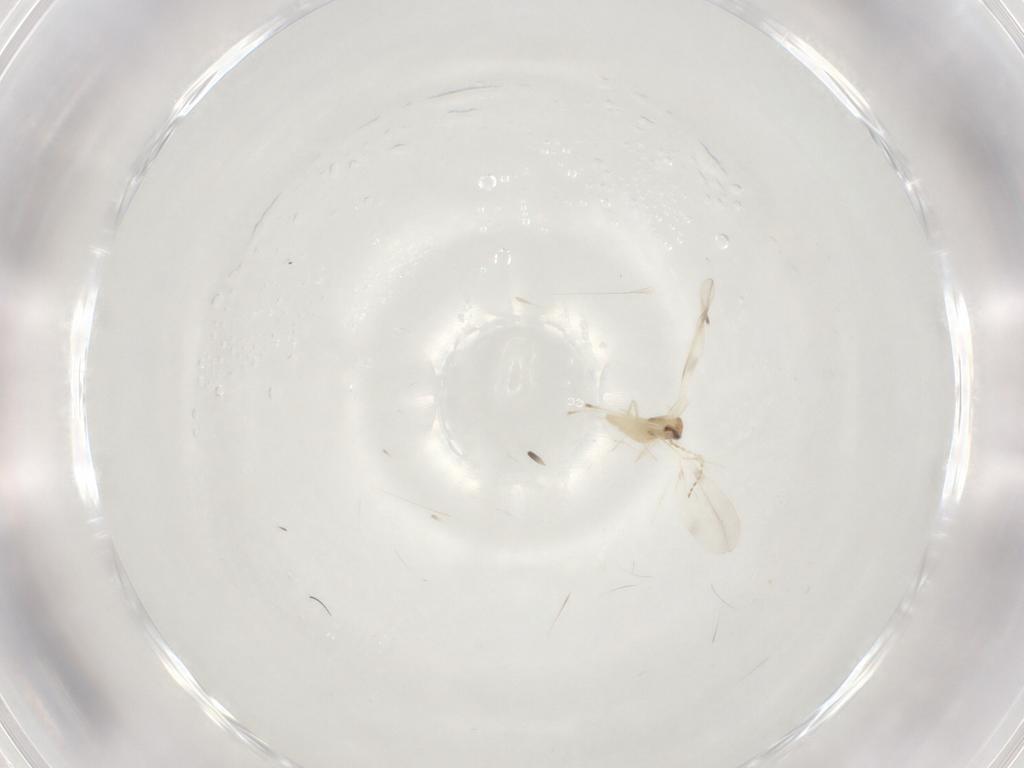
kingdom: Animalia
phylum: Arthropoda
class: Insecta
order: Diptera
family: Cecidomyiidae
